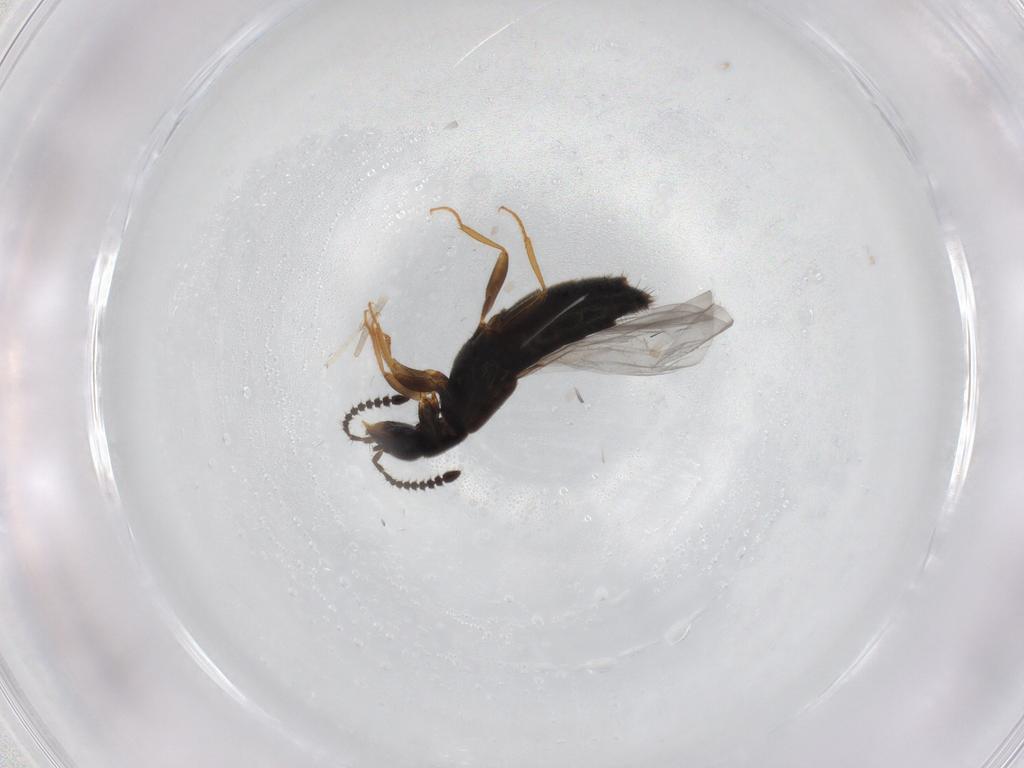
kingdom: Animalia
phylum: Arthropoda
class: Insecta
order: Coleoptera
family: Staphylinidae
